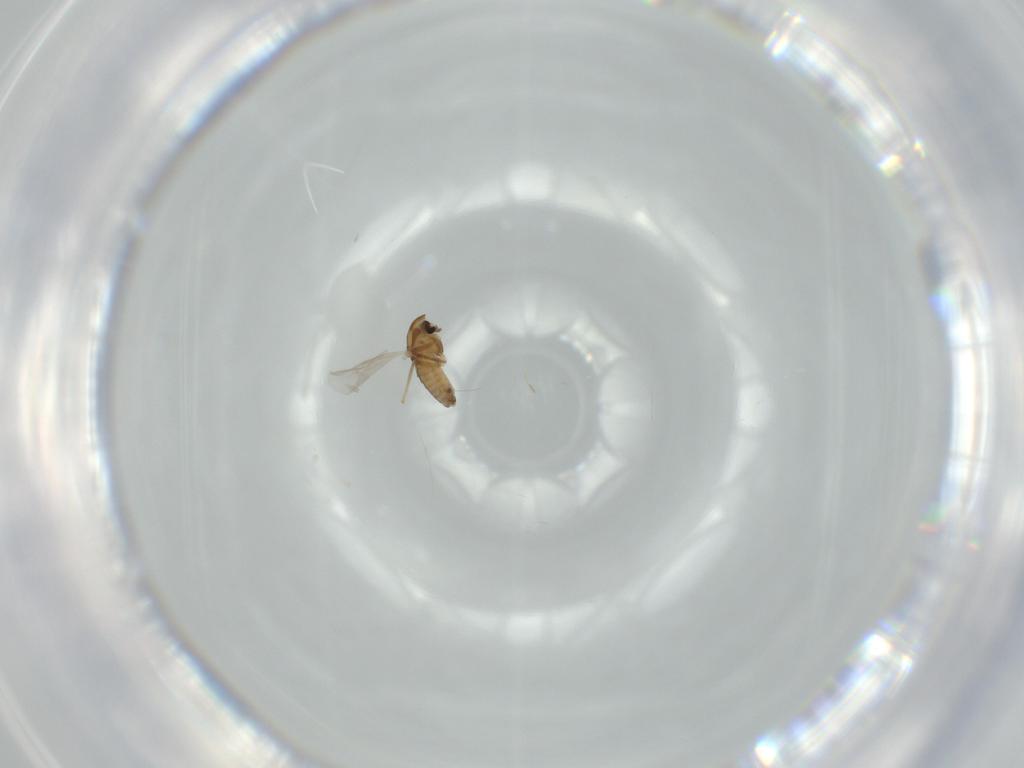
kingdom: Animalia
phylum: Arthropoda
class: Insecta
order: Diptera
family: Chironomidae
